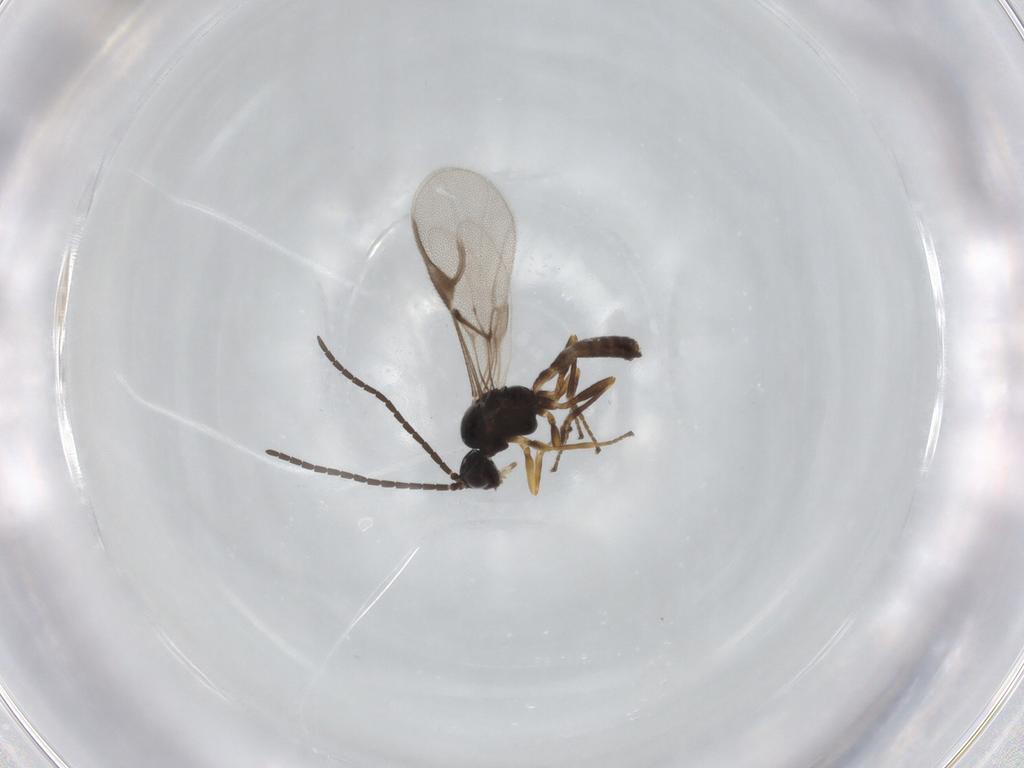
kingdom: Animalia
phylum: Arthropoda
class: Insecta
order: Hymenoptera
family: Braconidae
